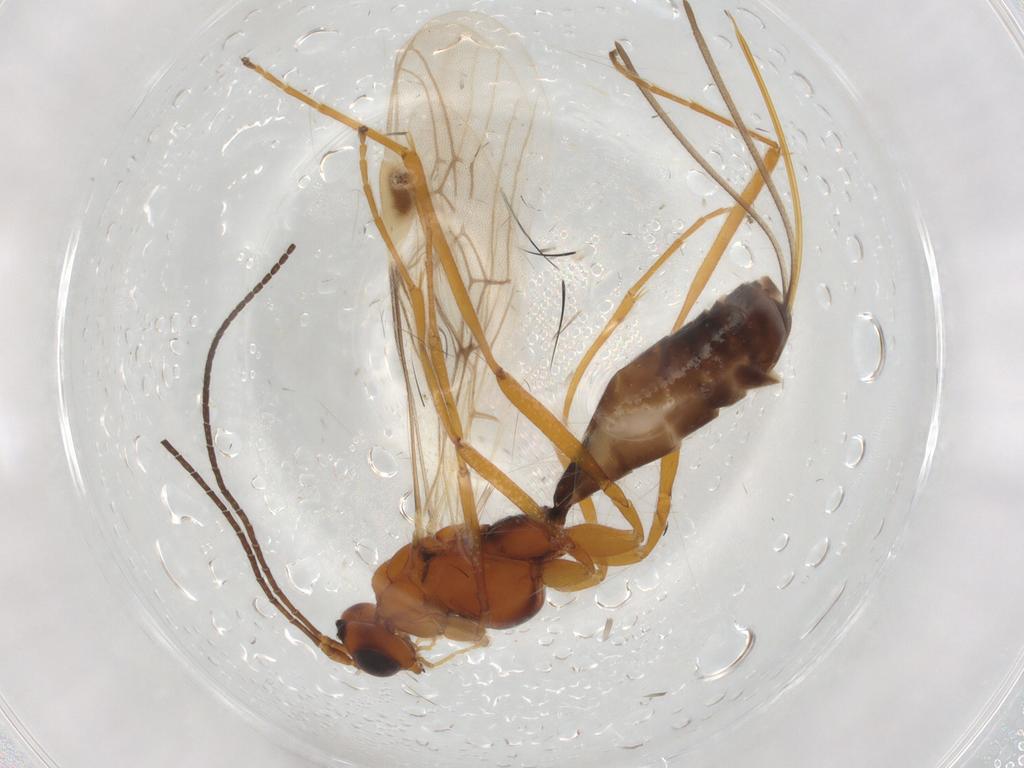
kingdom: Animalia
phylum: Arthropoda
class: Insecta
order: Hymenoptera
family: Braconidae
